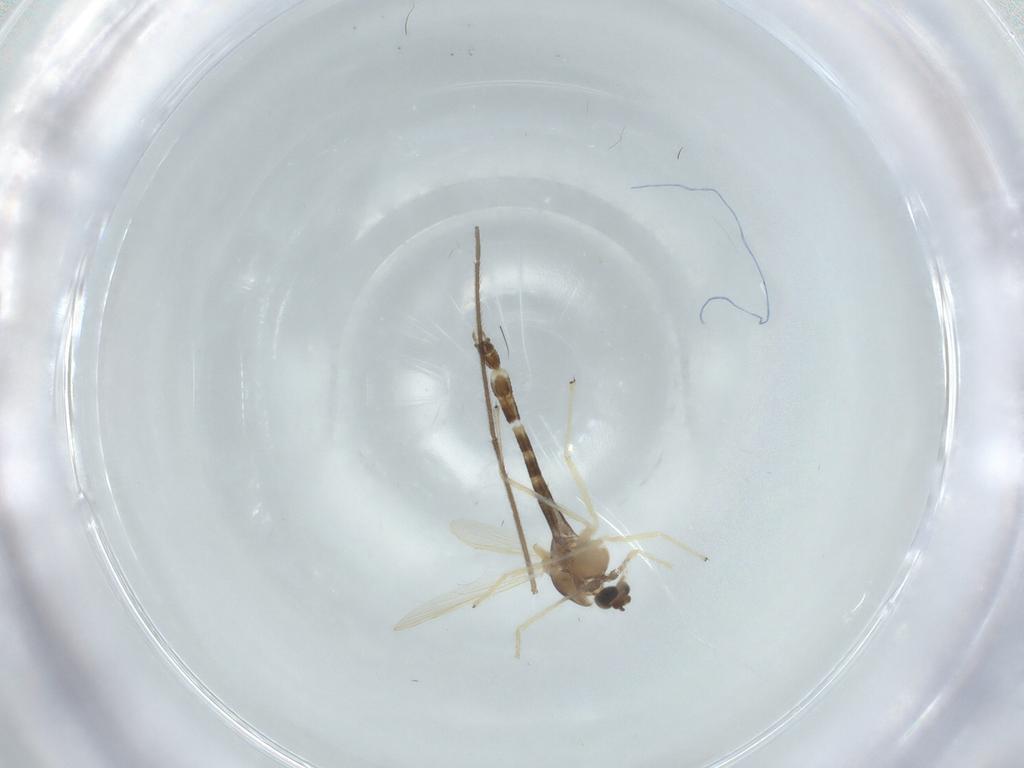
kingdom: Animalia
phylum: Arthropoda
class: Insecta
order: Diptera
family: Chironomidae
